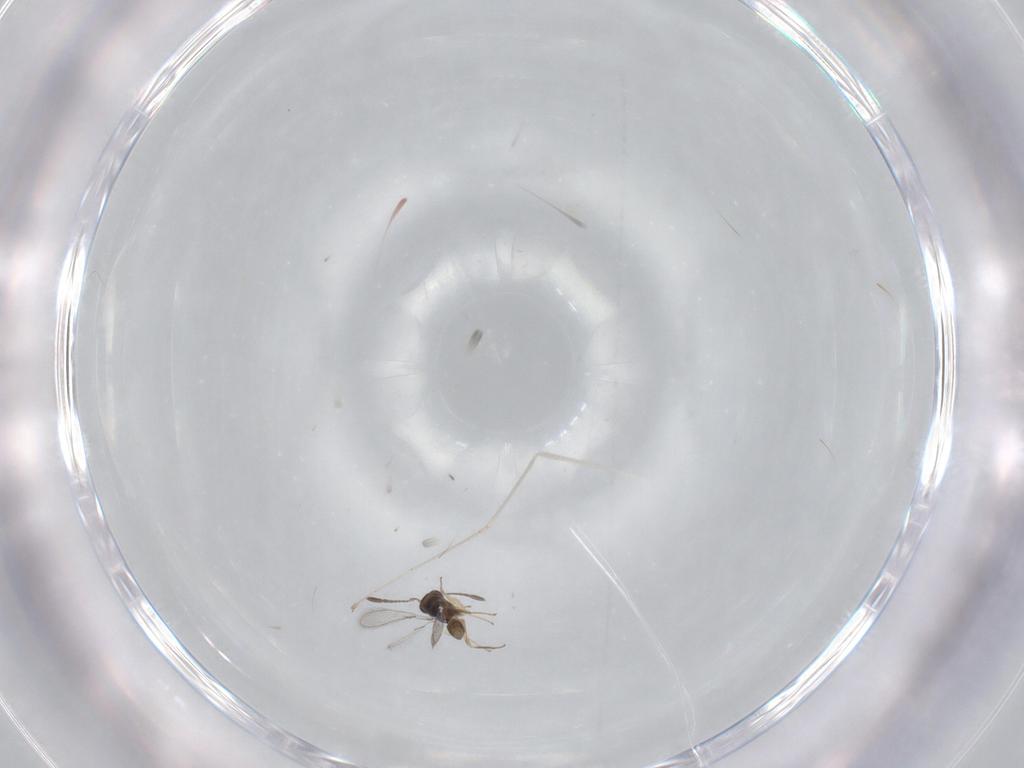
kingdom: Animalia
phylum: Arthropoda
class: Insecta
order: Diptera
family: Cecidomyiidae
